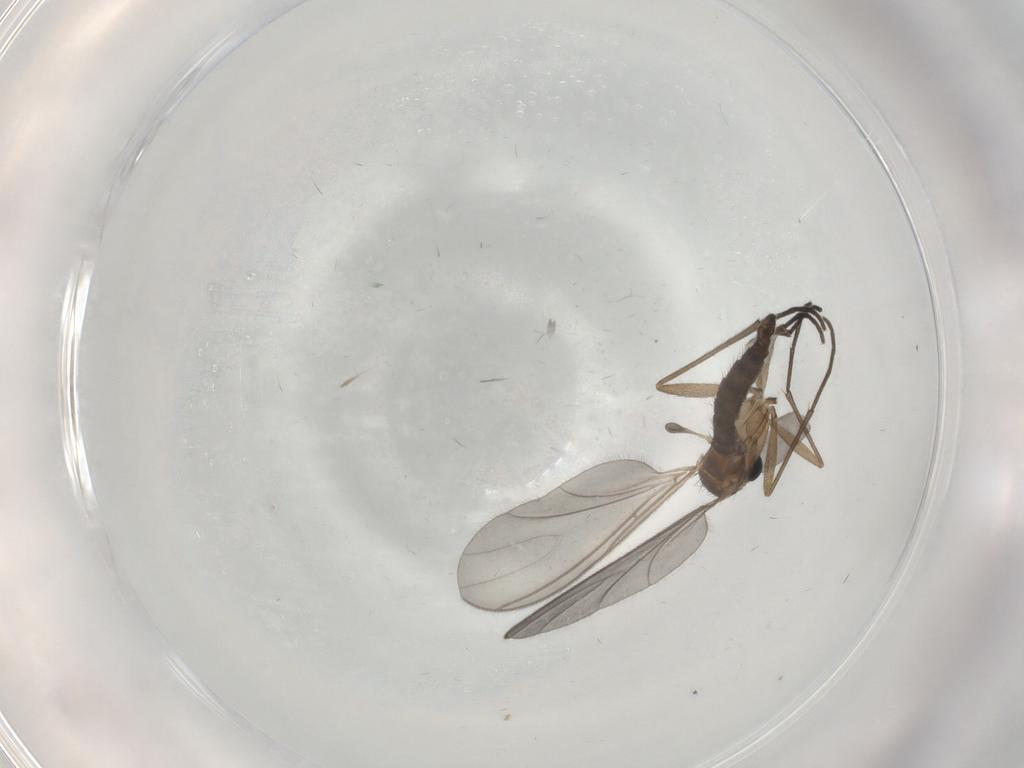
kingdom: Animalia
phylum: Arthropoda
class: Insecta
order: Diptera
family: Sciaridae
